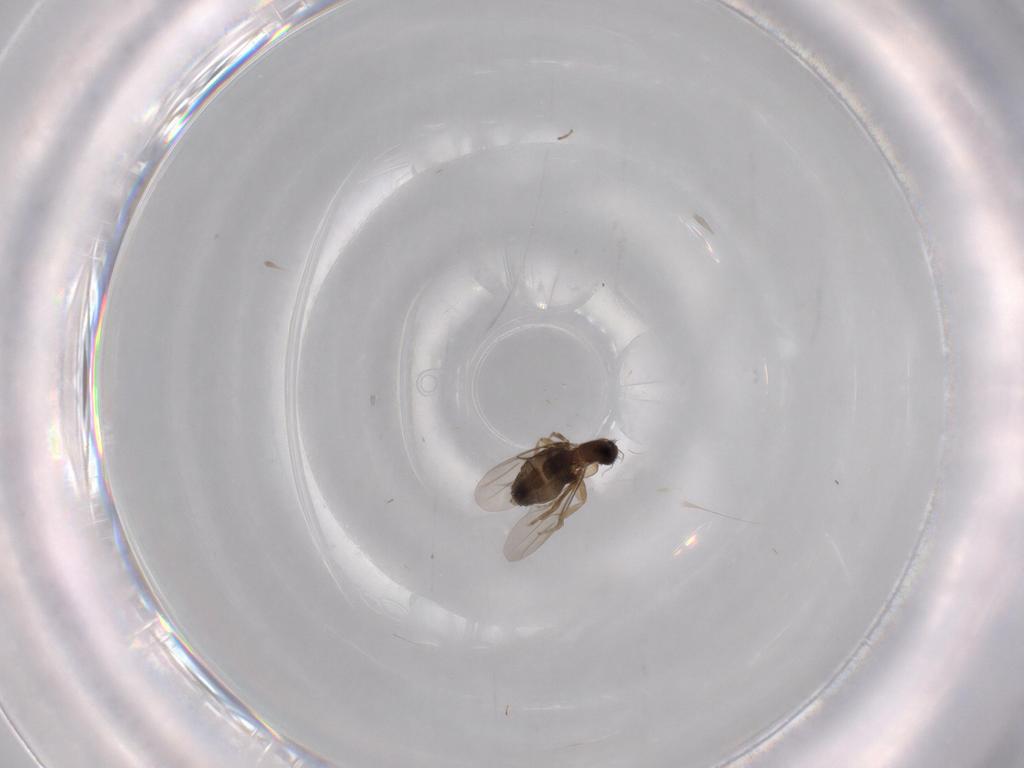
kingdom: Animalia
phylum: Arthropoda
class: Insecta
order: Diptera
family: Phoridae
